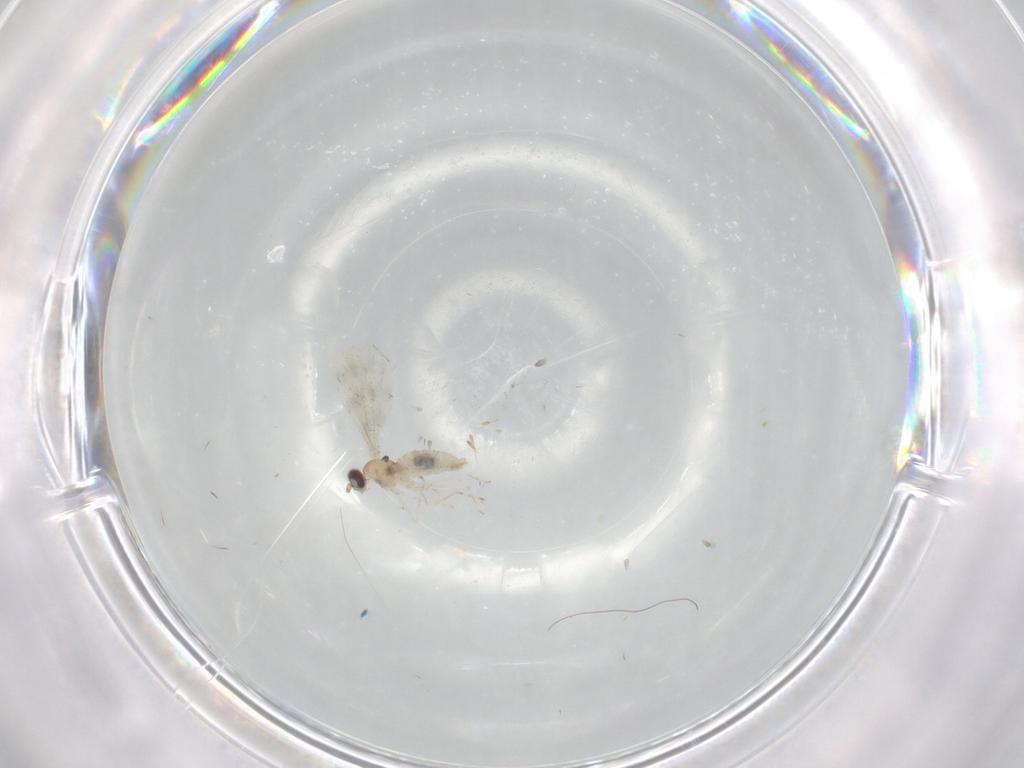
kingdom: Animalia
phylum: Arthropoda
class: Insecta
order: Diptera
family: Cecidomyiidae
